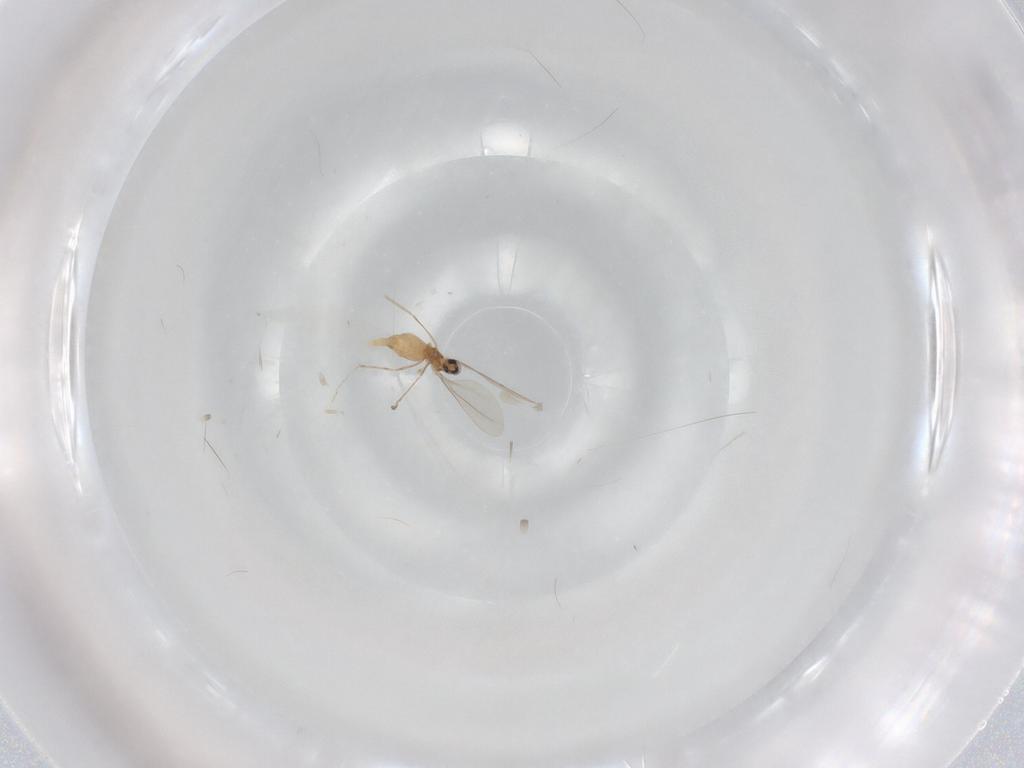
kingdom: Animalia
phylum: Arthropoda
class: Insecta
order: Diptera
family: Cecidomyiidae
